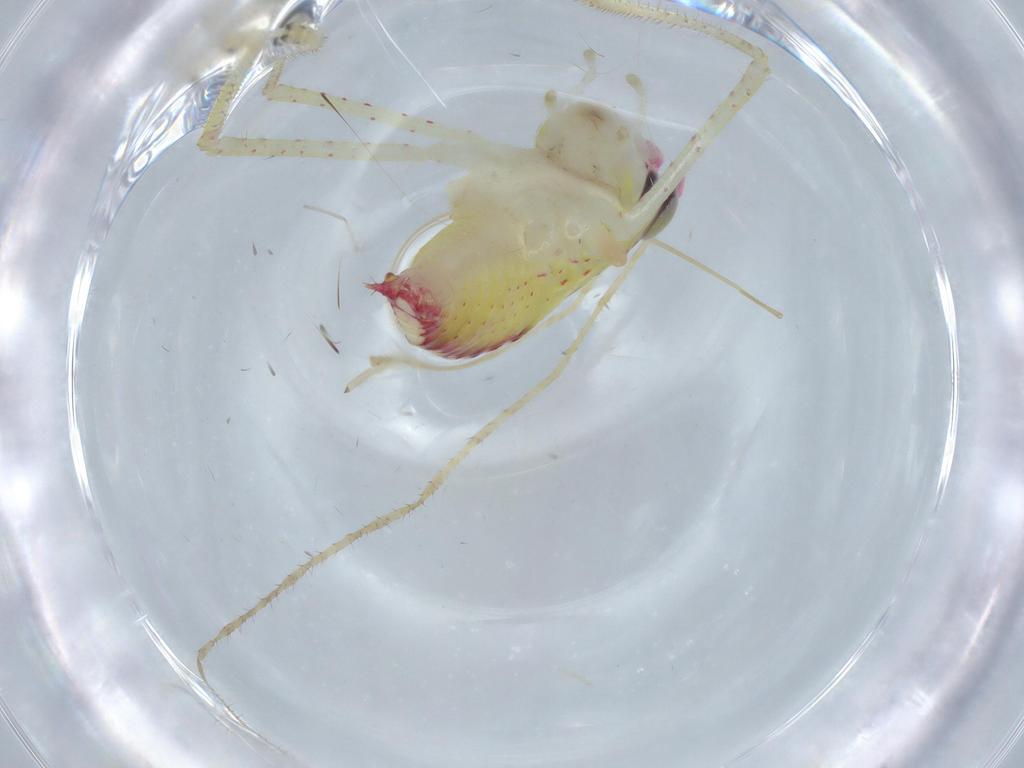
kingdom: Animalia
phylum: Arthropoda
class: Insecta
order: Orthoptera
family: Tettigoniidae
